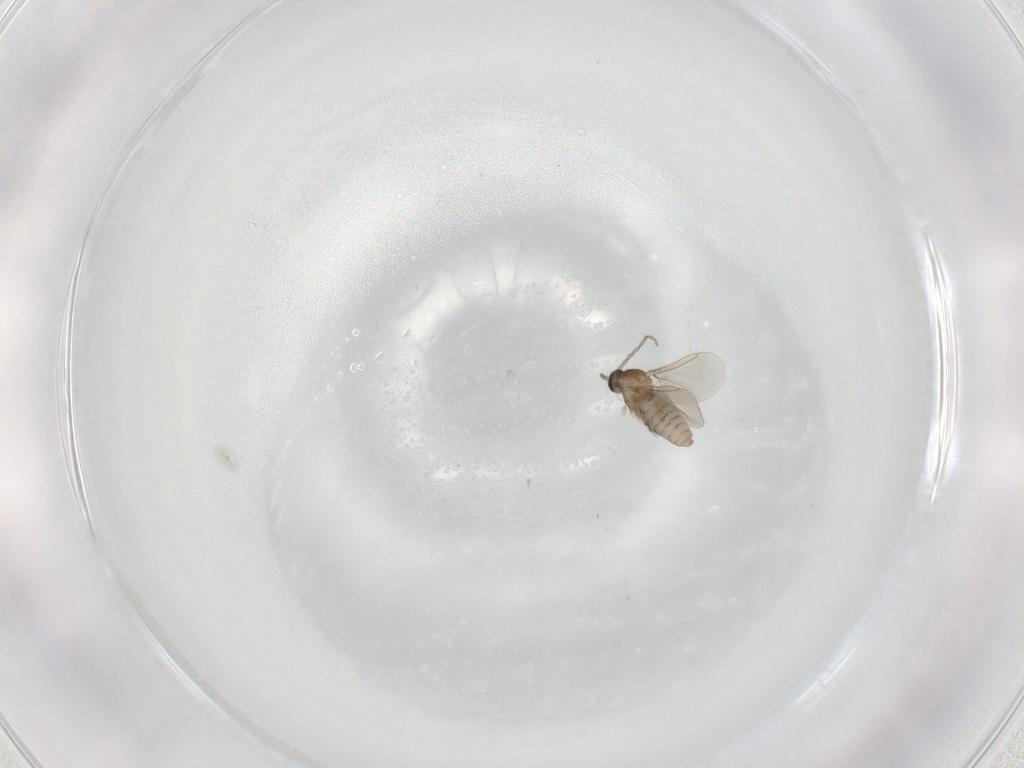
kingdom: Animalia
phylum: Arthropoda
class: Insecta
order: Diptera
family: Cecidomyiidae
